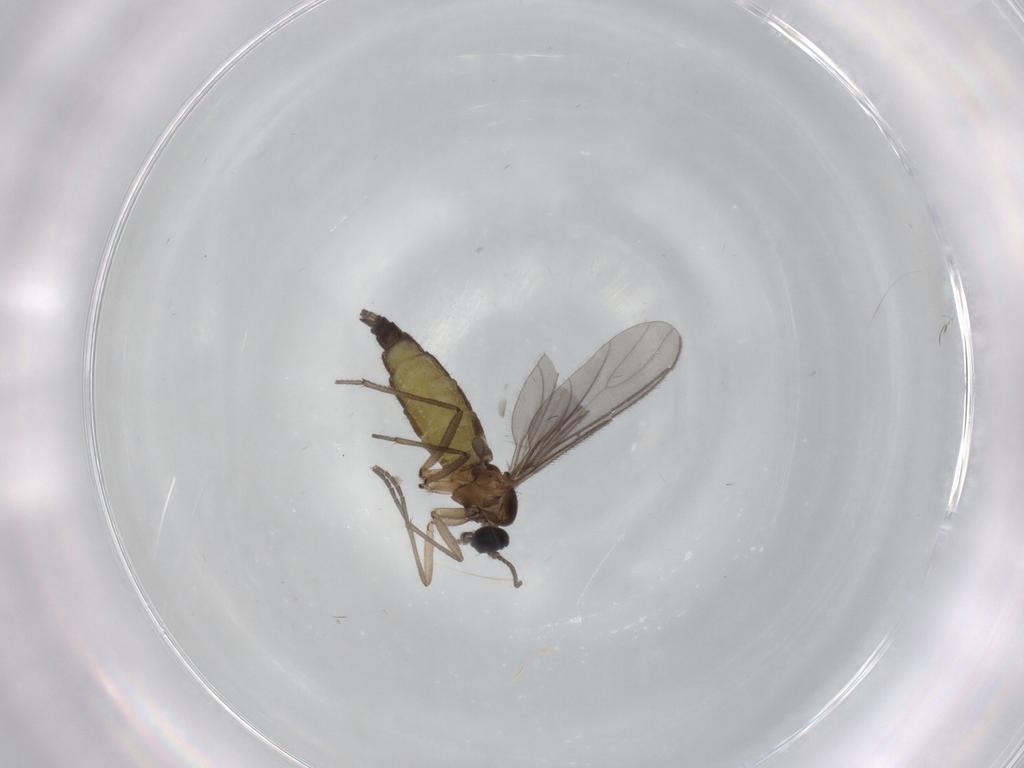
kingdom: Animalia
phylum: Arthropoda
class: Insecta
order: Diptera
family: Sciaridae
